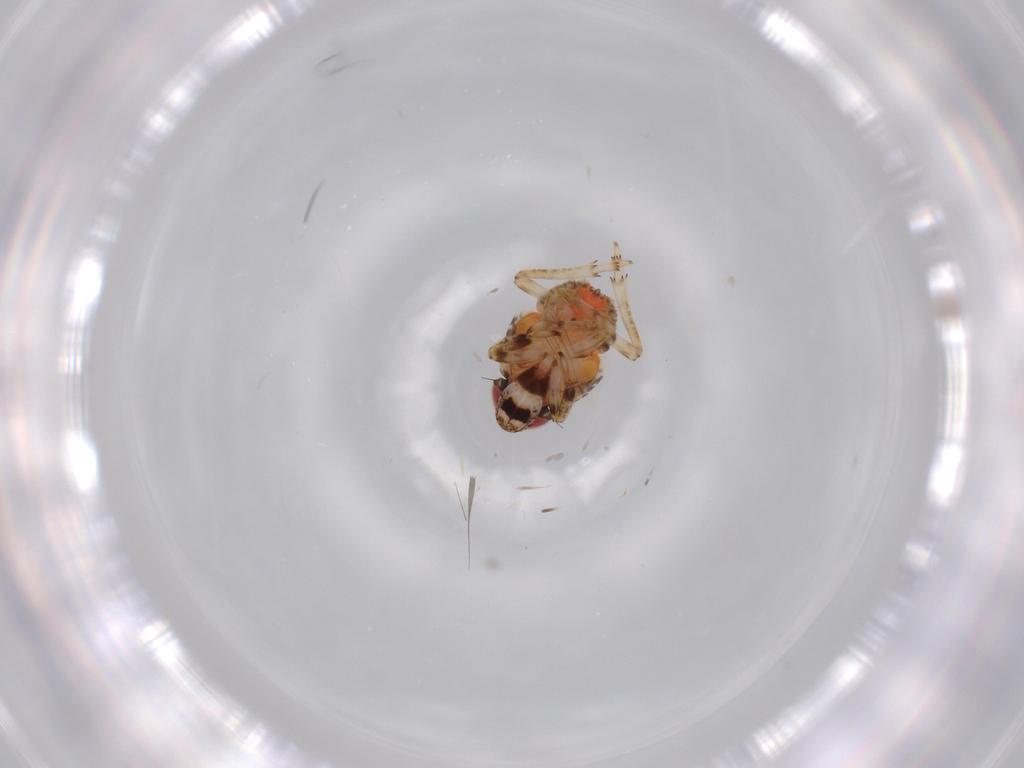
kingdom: Animalia
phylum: Arthropoda
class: Insecta
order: Hemiptera
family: Issidae
